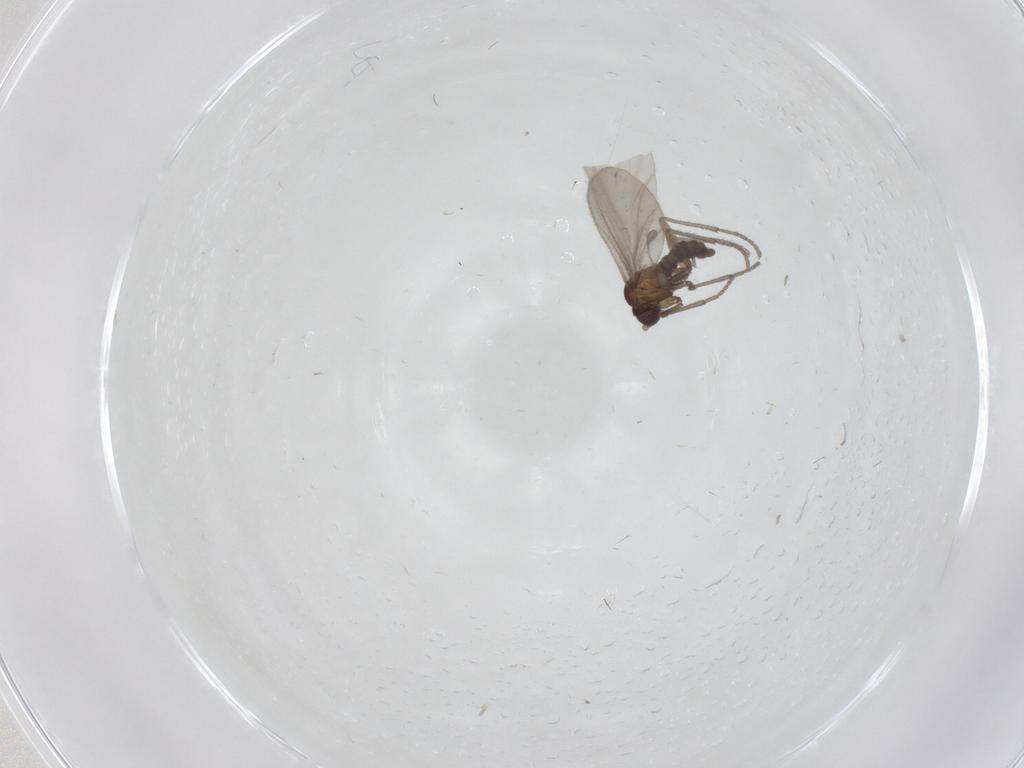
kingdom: Animalia
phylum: Arthropoda
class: Insecta
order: Diptera
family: Sciaridae
